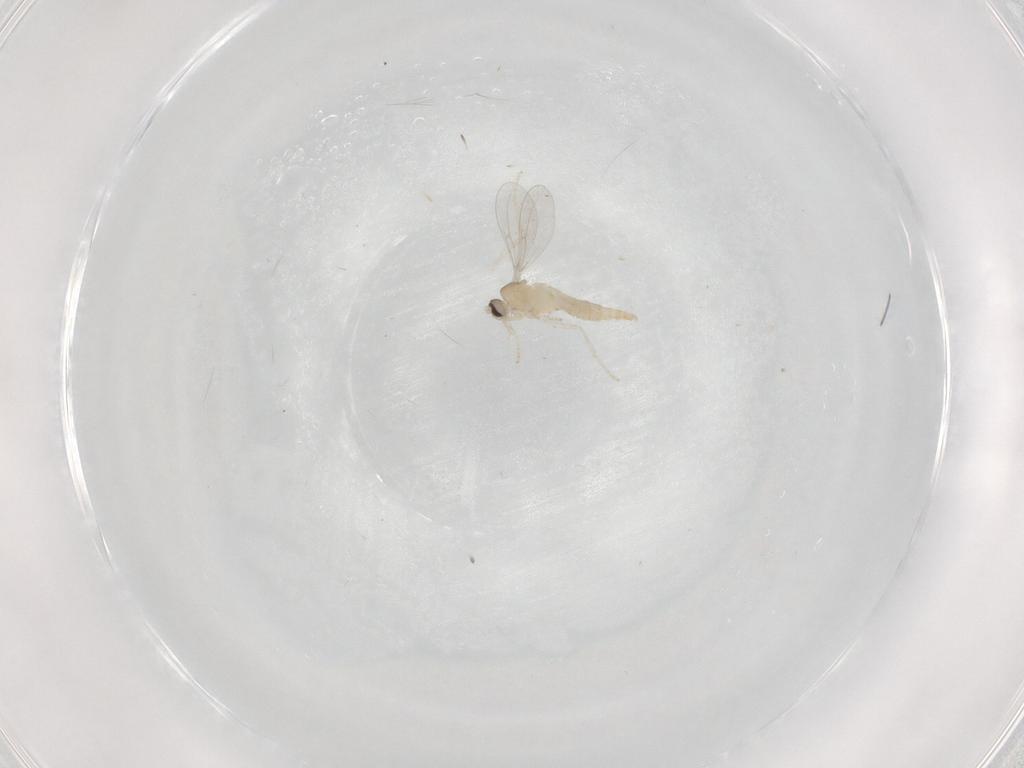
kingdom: Animalia
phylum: Arthropoda
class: Insecta
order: Diptera
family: Cecidomyiidae
